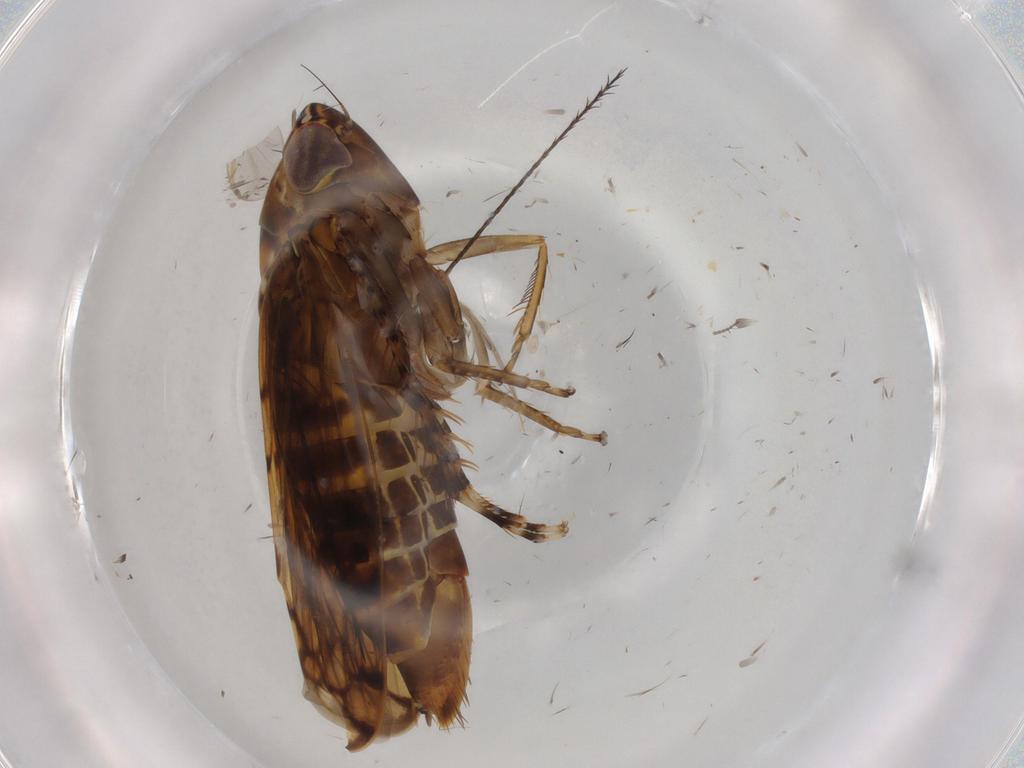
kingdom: Animalia
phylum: Arthropoda
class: Insecta
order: Hemiptera
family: Cicadellidae
